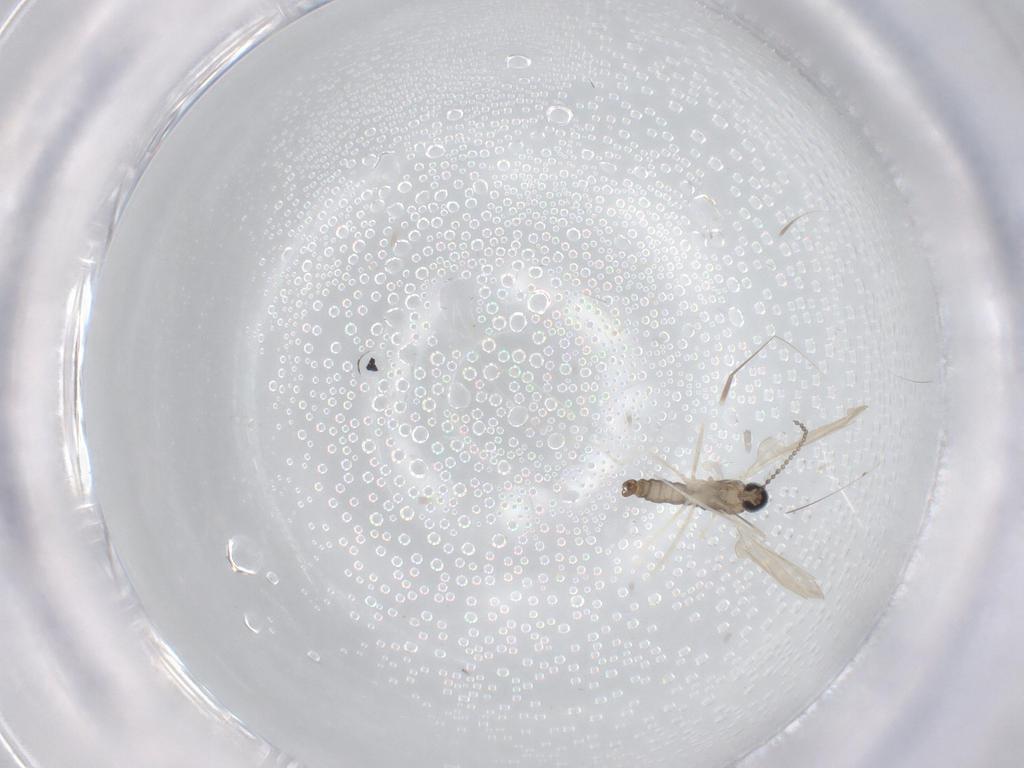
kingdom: Animalia
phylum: Arthropoda
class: Insecta
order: Diptera
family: Cecidomyiidae
